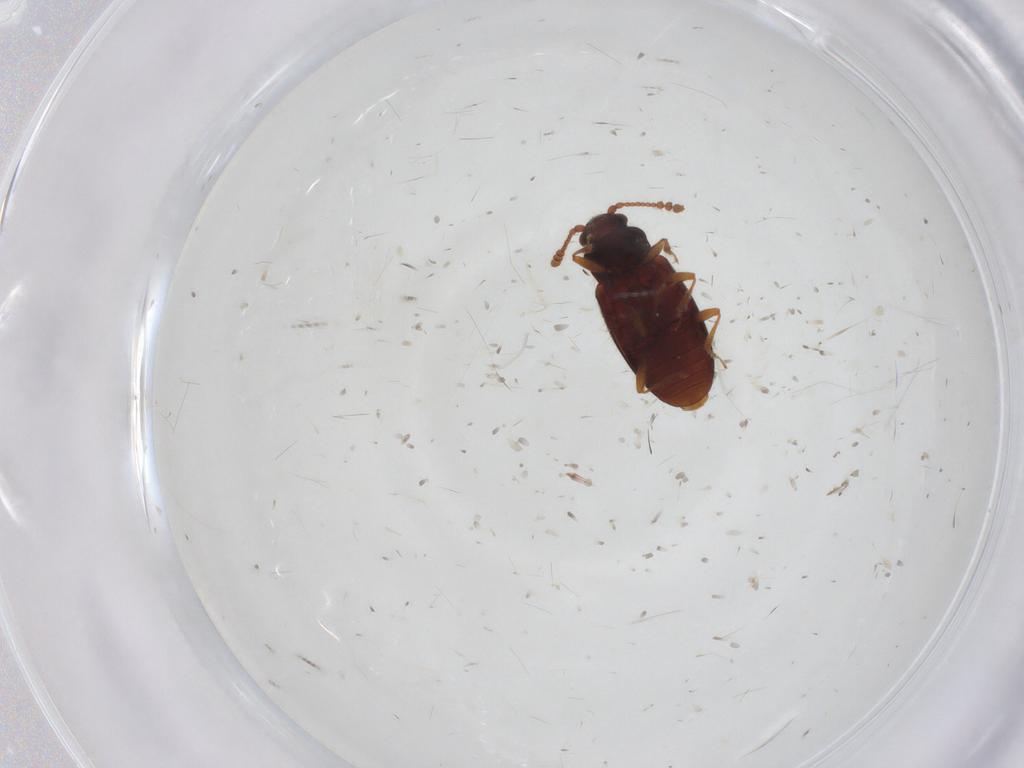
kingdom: Animalia
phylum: Arthropoda
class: Insecta
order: Coleoptera
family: Cryptophagidae
